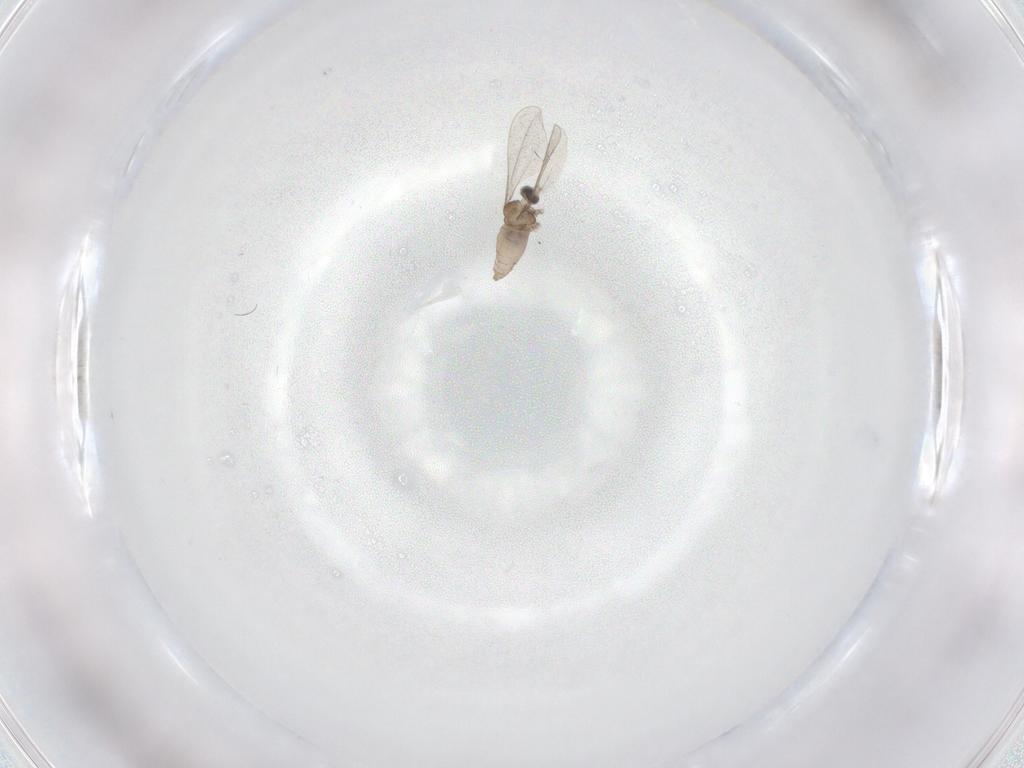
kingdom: Animalia
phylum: Arthropoda
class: Insecta
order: Diptera
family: Cecidomyiidae
